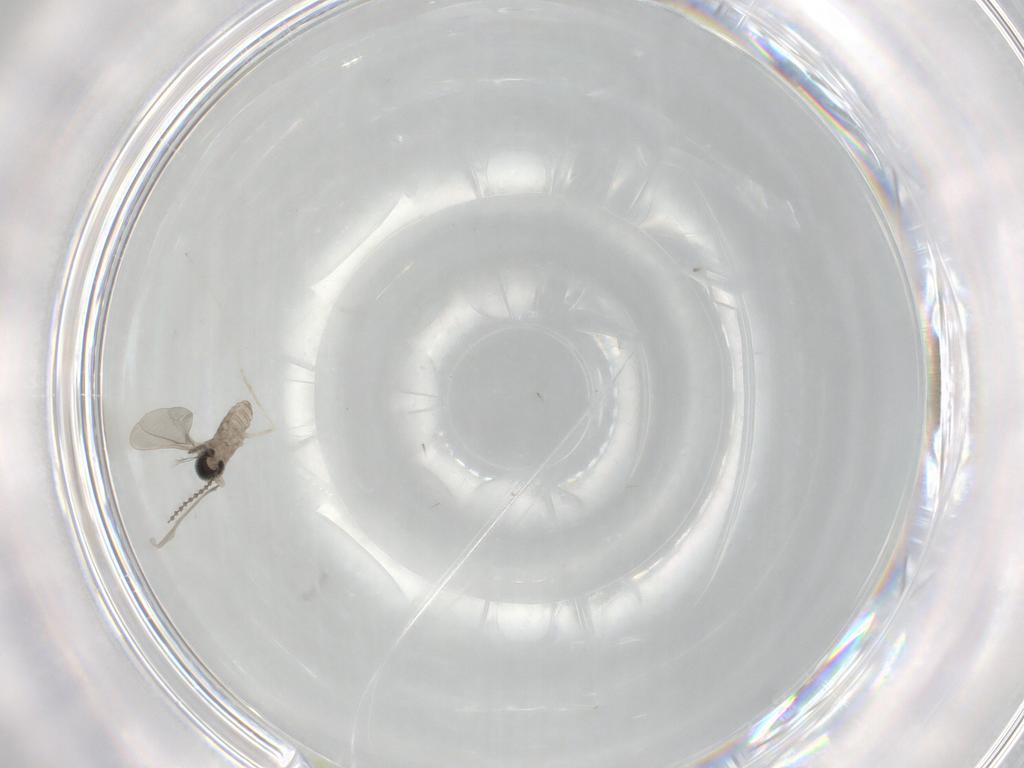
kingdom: Animalia
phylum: Arthropoda
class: Insecta
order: Diptera
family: Cecidomyiidae
